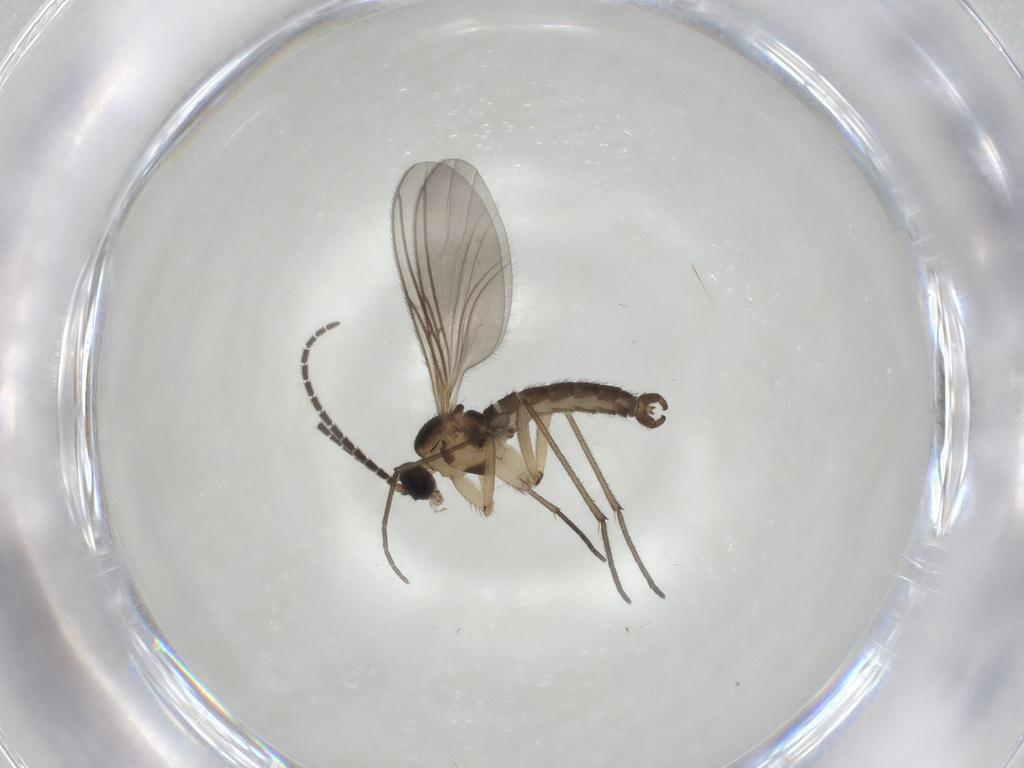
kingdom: Animalia
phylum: Arthropoda
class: Insecta
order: Diptera
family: Sciaridae
